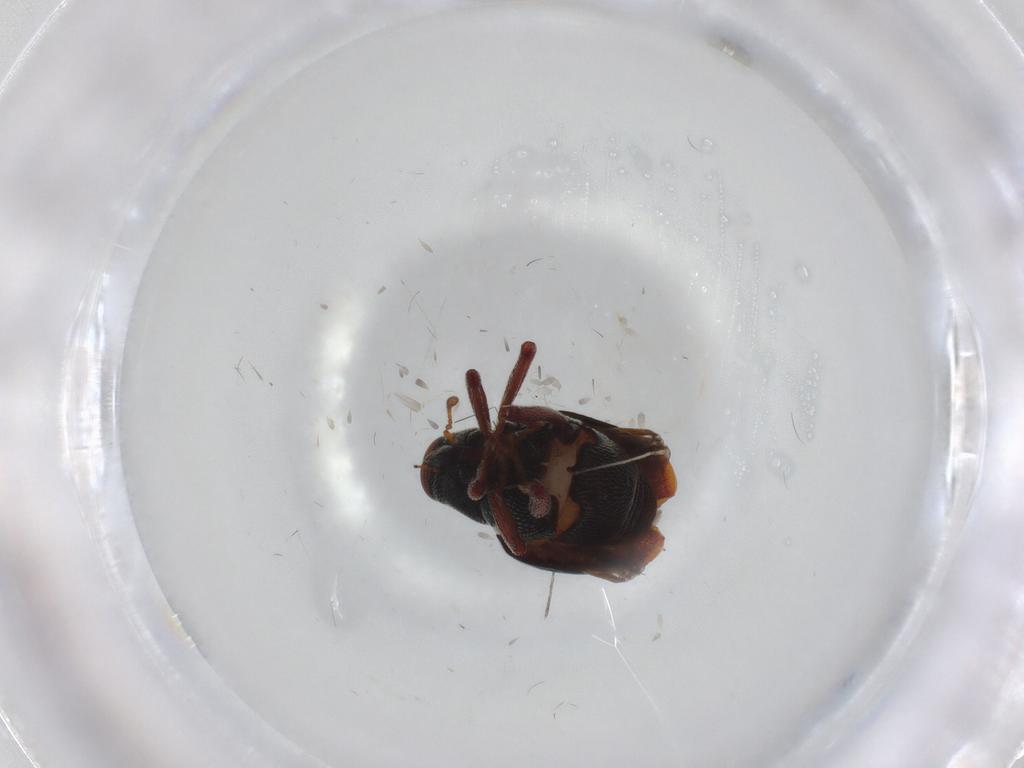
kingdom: Animalia
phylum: Arthropoda
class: Insecta
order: Coleoptera
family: Curculionidae
